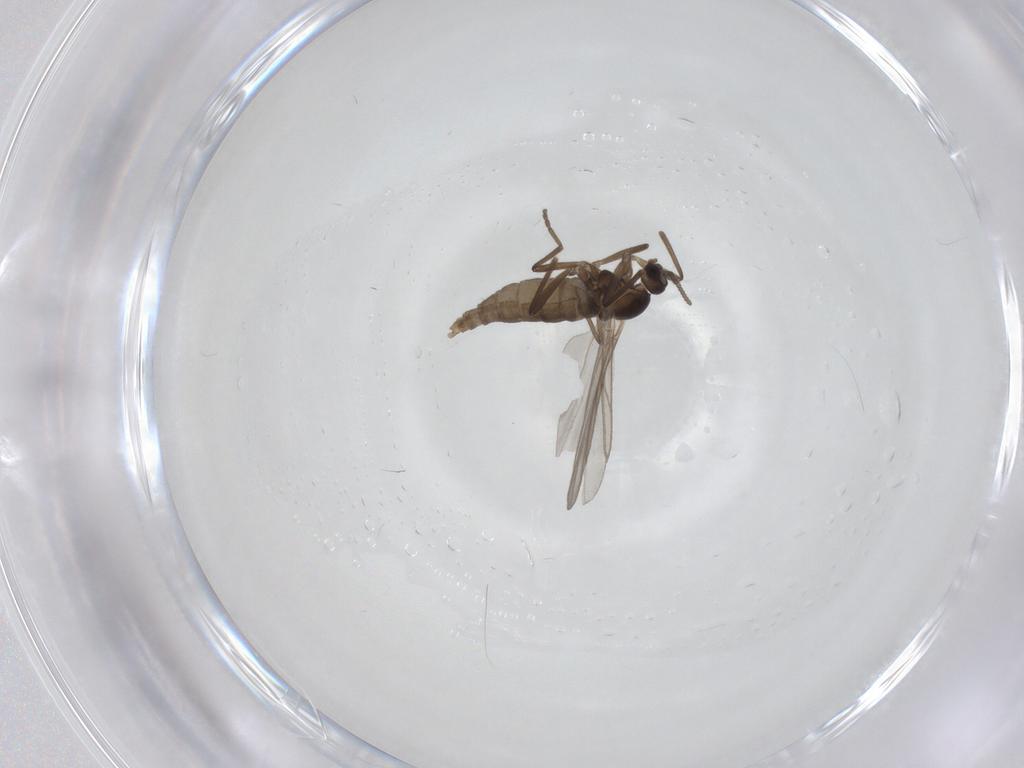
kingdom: Animalia
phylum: Arthropoda
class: Insecta
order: Diptera
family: Cecidomyiidae
